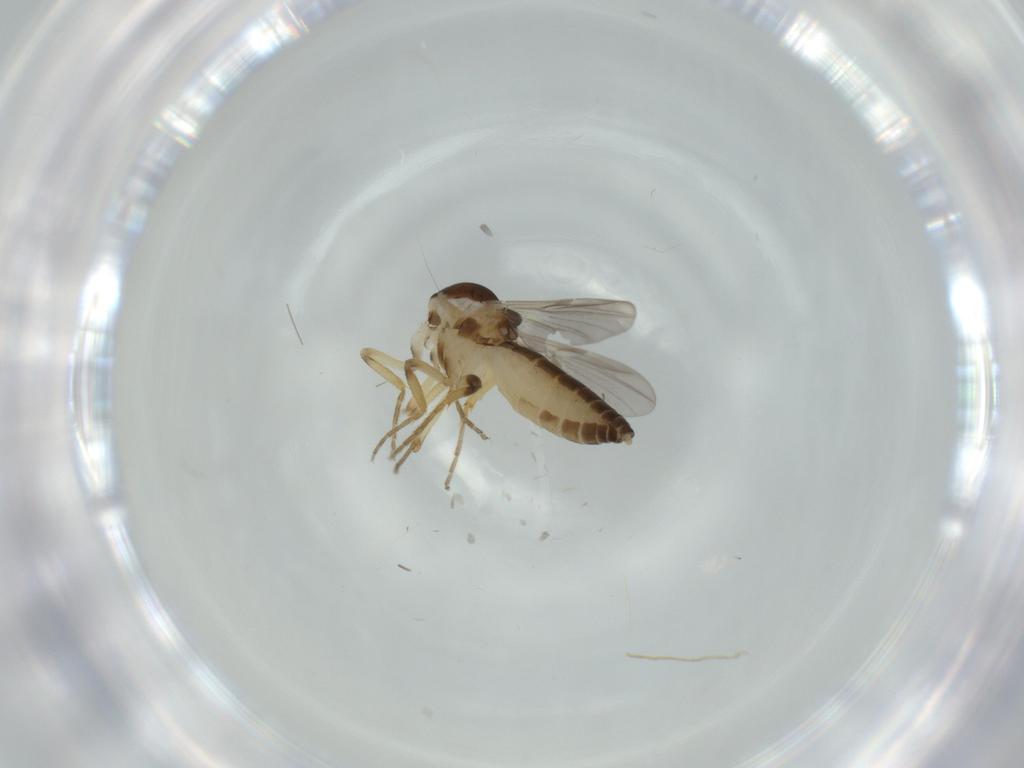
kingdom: Animalia
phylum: Arthropoda
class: Insecta
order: Diptera
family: Ceratopogonidae
